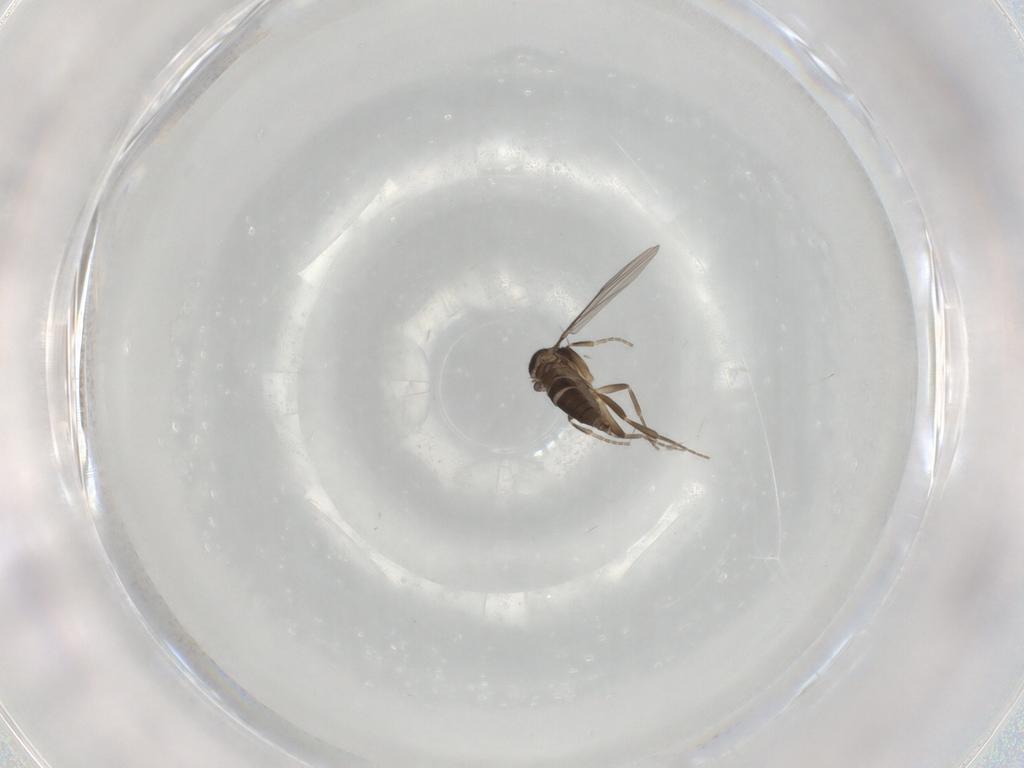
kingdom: Animalia
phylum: Arthropoda
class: Insecta
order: Diptera
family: Milichiidae
